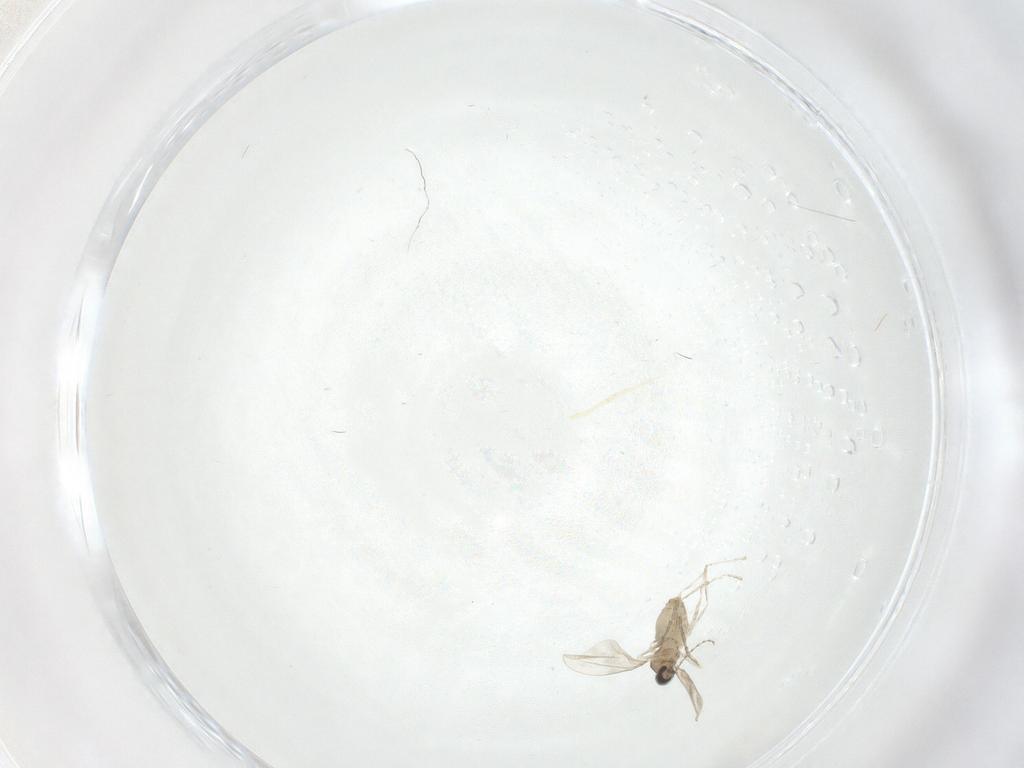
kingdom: Animalia
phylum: Arthropoda
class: Insecta
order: Diptera
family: Cecidomyiidae
